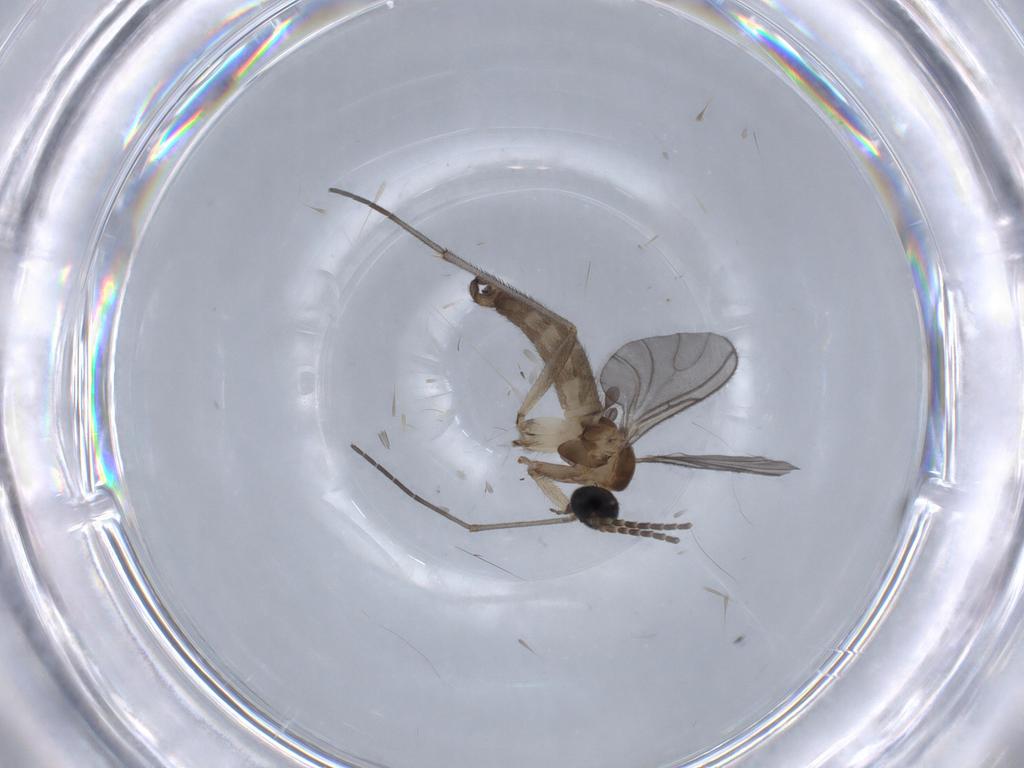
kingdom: Animalia
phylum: Arthropoda
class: Insecta
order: Diptera
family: Sciaridae
